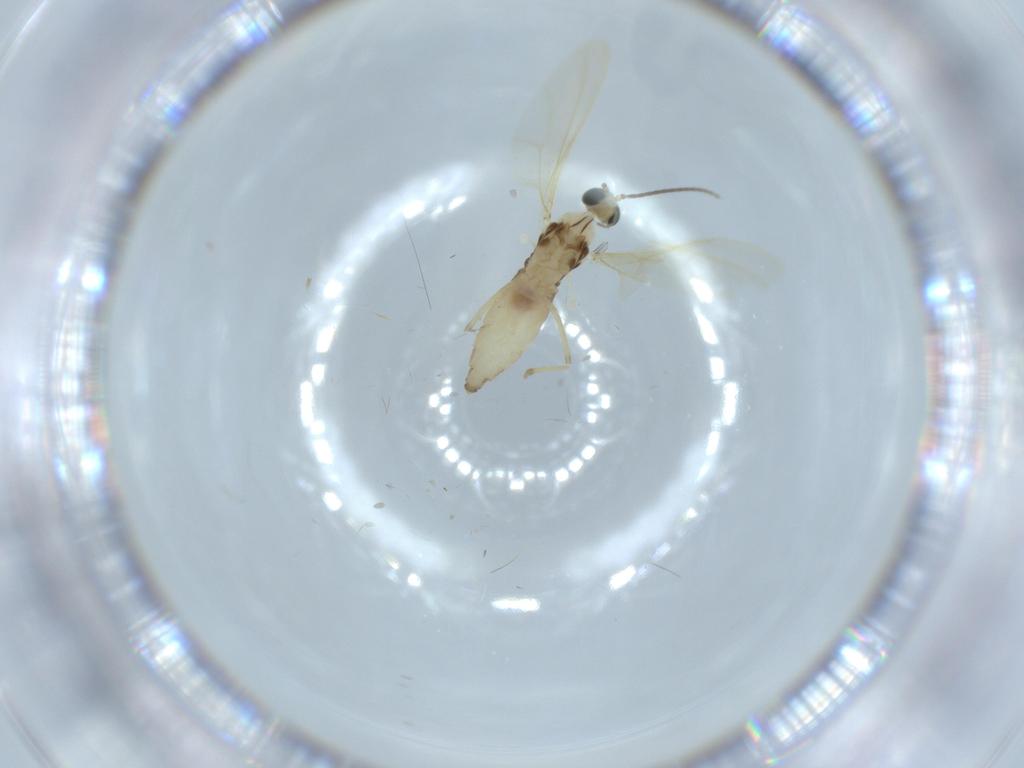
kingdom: Animalia
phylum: Arthropoda
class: Insecta
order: Diptera
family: Cecidomyiidae
